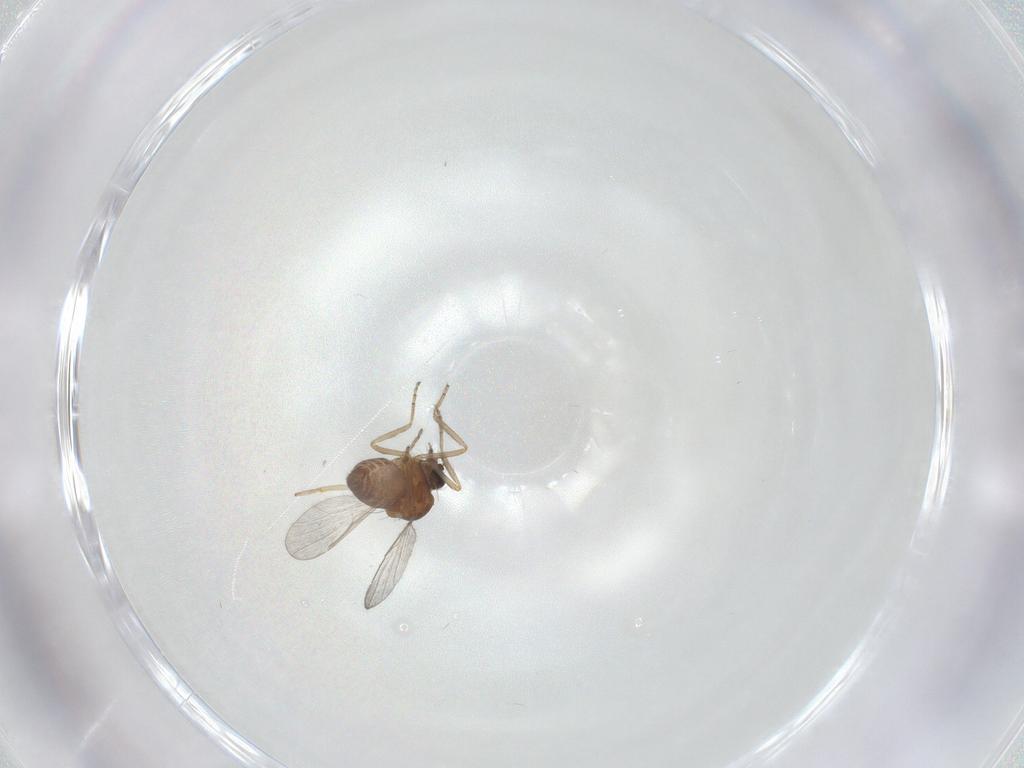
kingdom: Animalia
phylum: Arthropoda
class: Insecta
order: Diptera
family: Ceratopogonidae
